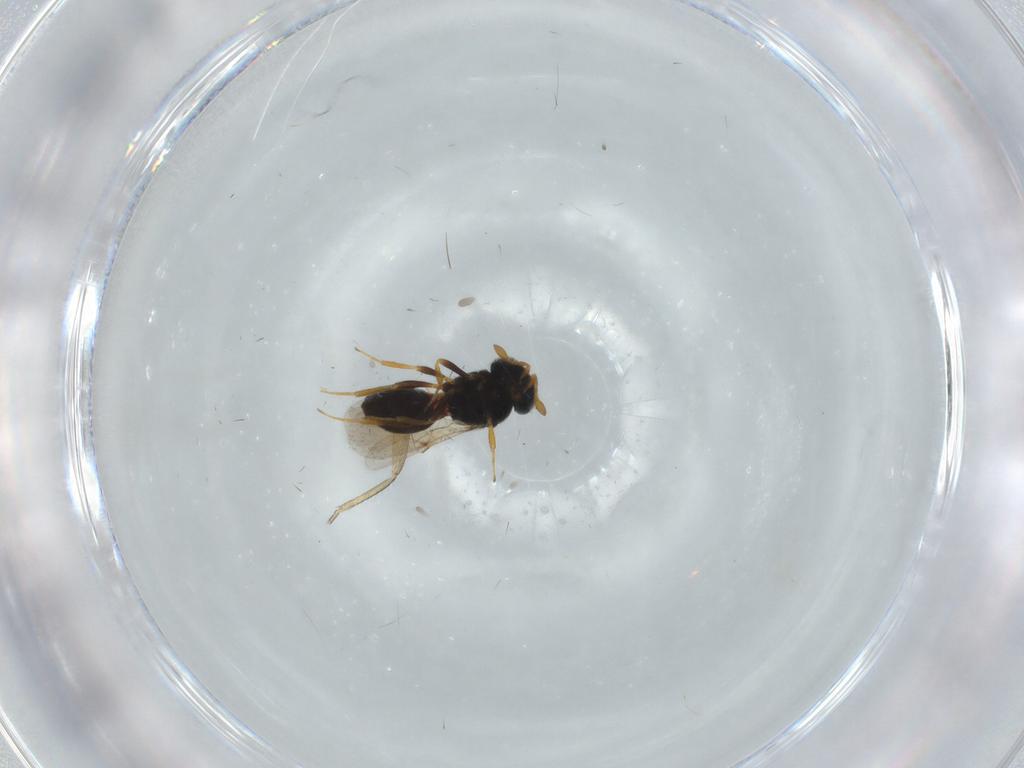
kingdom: Animalia
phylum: Arthropoda
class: Insecta
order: Hymenoptera
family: Scelionidae
